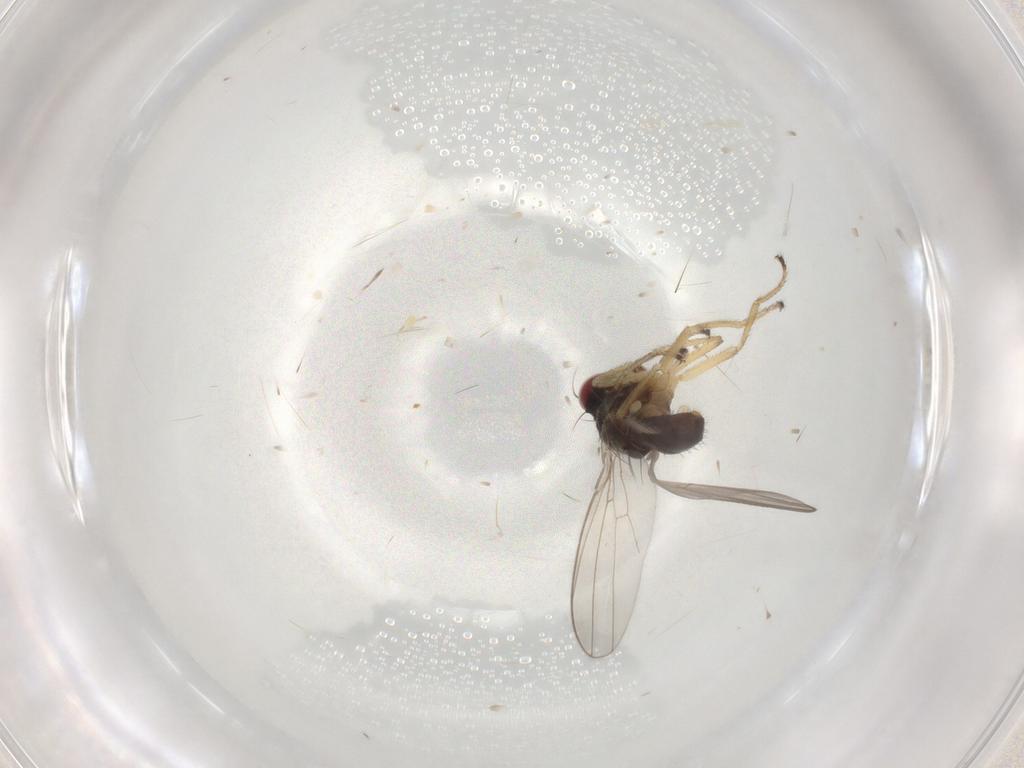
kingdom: Animalia
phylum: Arthropoda
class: Insecta
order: Diptera
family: Ephydridae
